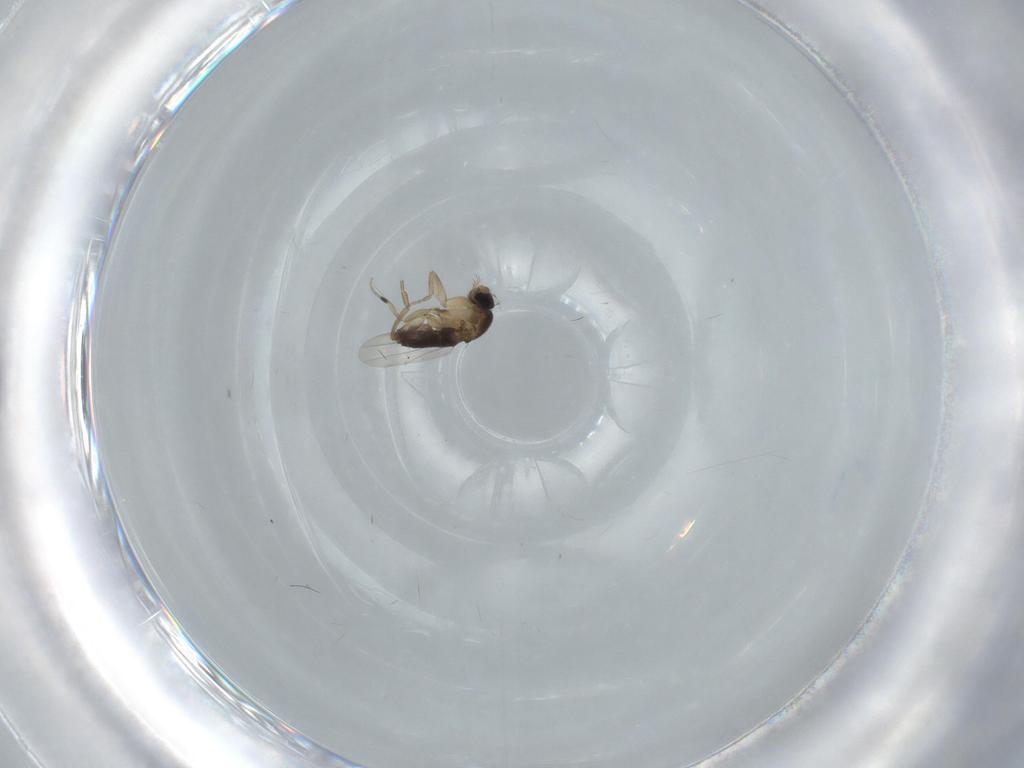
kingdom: Animalia
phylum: Arthropoda
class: Insecta
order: Diptera
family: Phoridae
